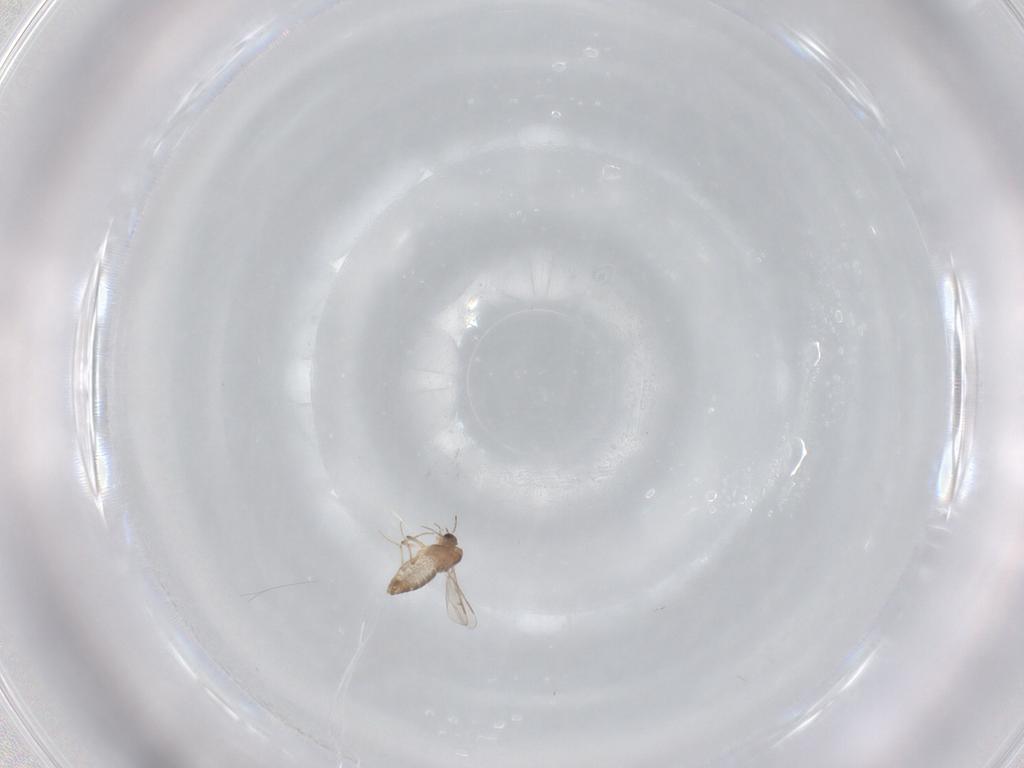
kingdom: Animalia
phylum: Arthropoda
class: Insecta
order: Diptera
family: Chironomidae
